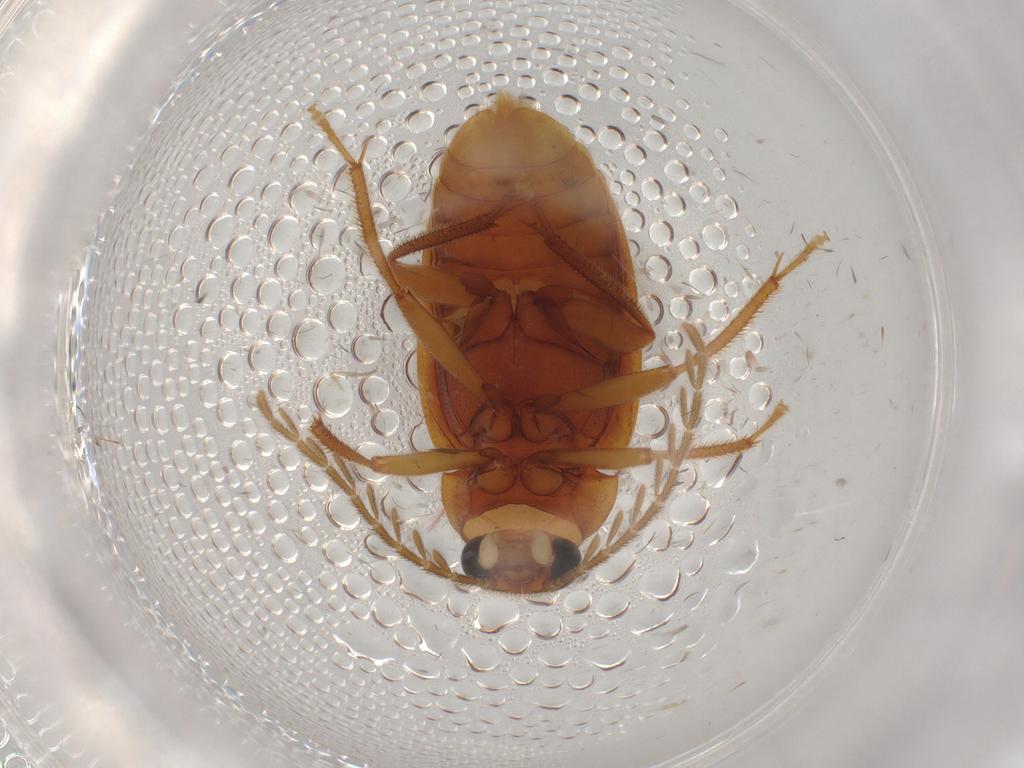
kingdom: Animalia
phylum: Arthropoda
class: Insecta
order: Coleoptera
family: Ptilodactylidae
